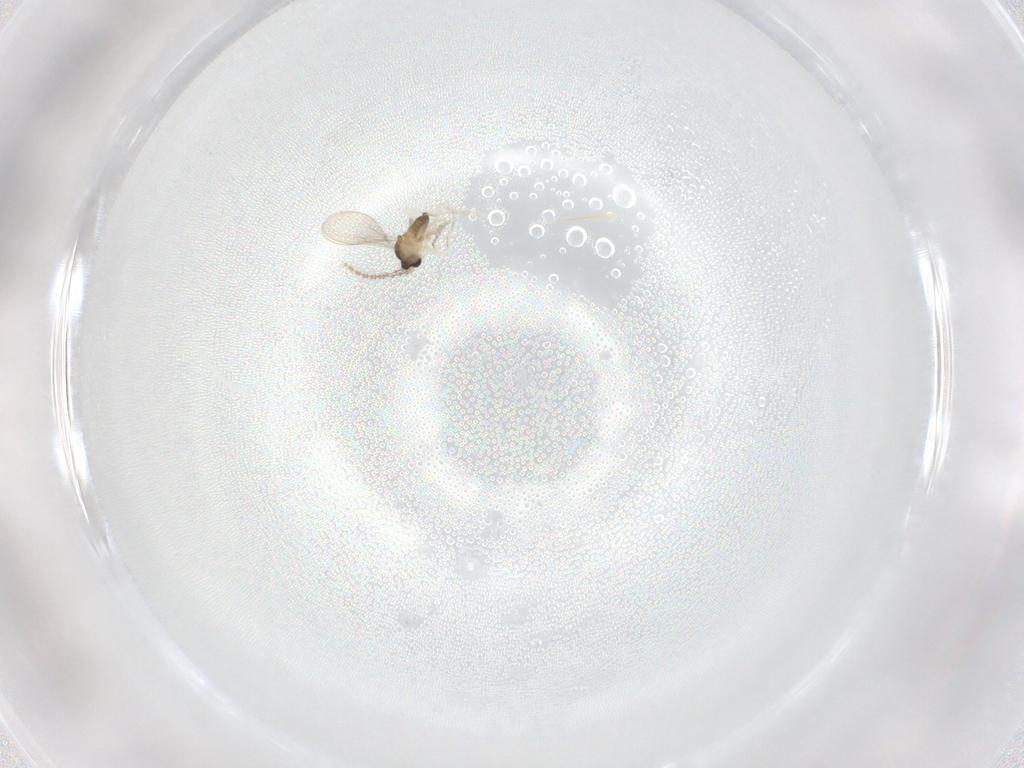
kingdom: Animalia
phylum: Arthropoda
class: Insecta
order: Diptera
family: Cecidomyiidae
